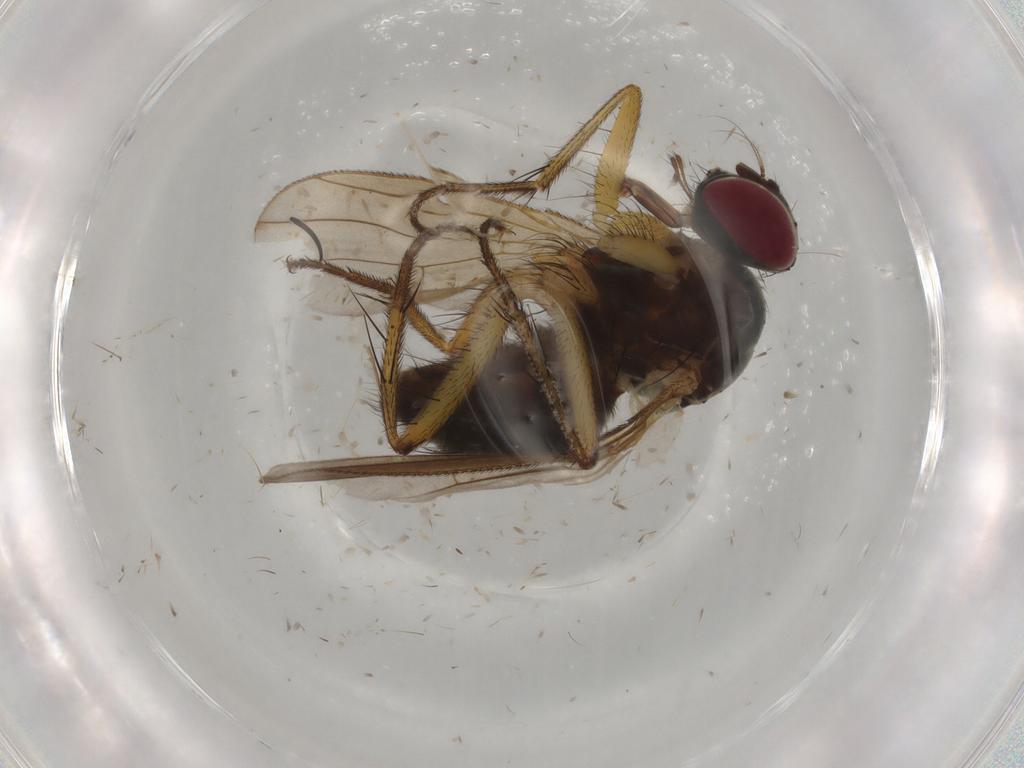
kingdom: Animalia
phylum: Arthropoda
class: Insecta
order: Diptera
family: Muscidae
